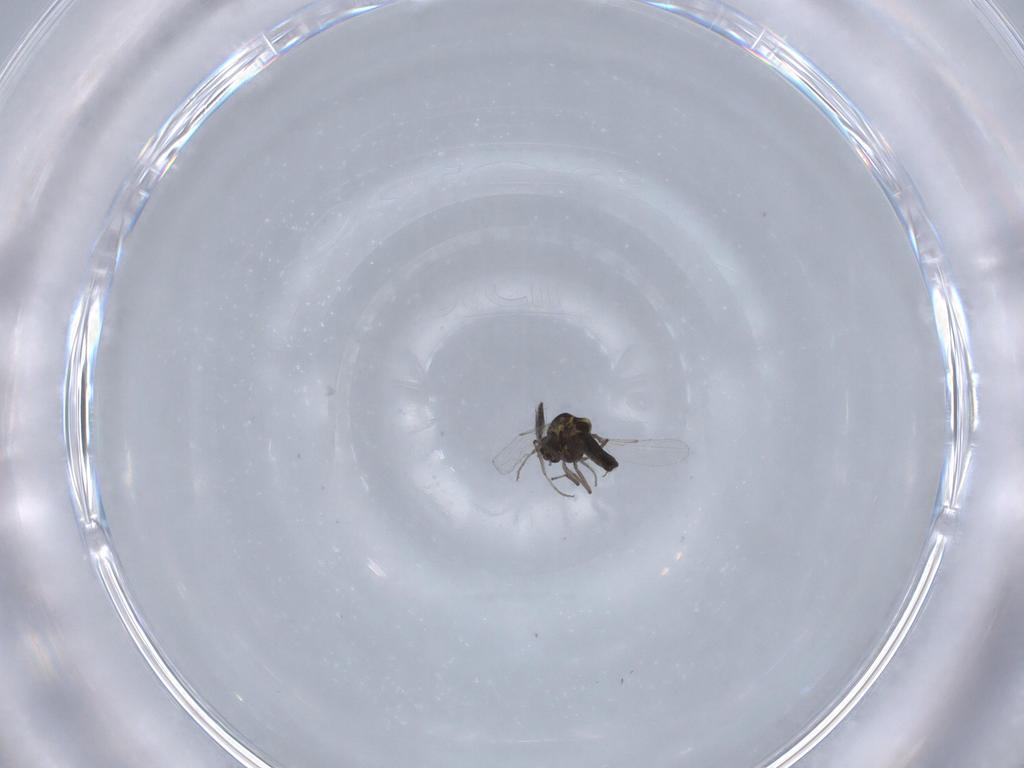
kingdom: Animalia
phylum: Arthropoda
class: Insecta
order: Diptera
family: Ceratopogonidae
